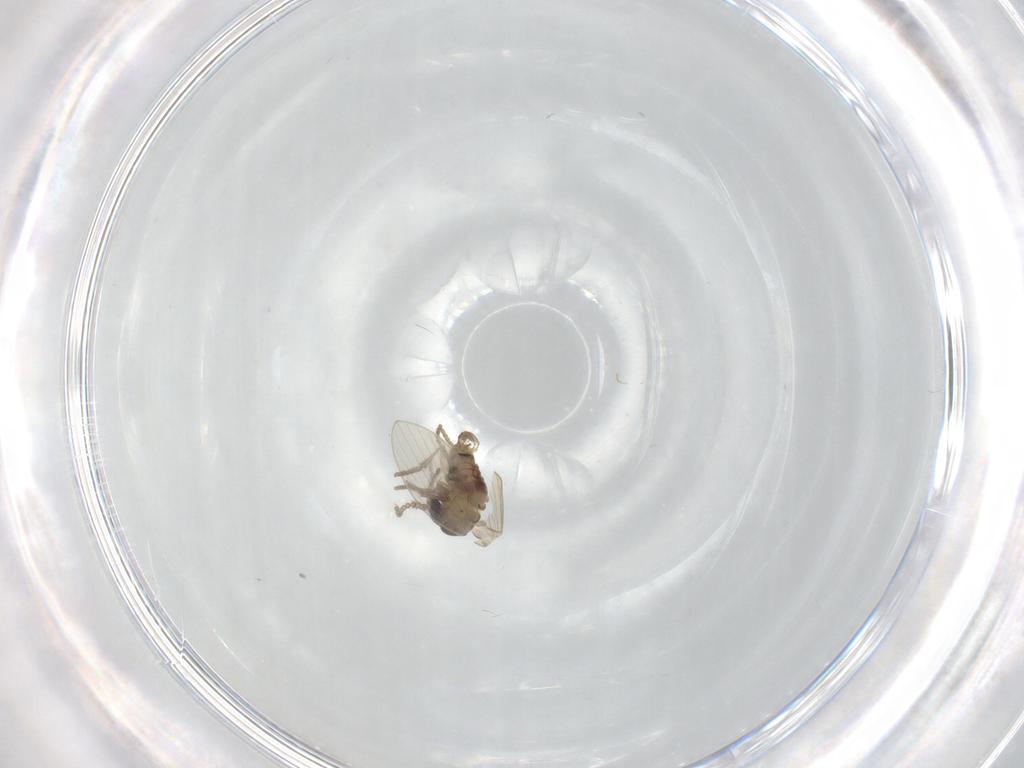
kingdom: Animalia
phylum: Arthropoda
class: Insecta
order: Diptera
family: Psychodidae
